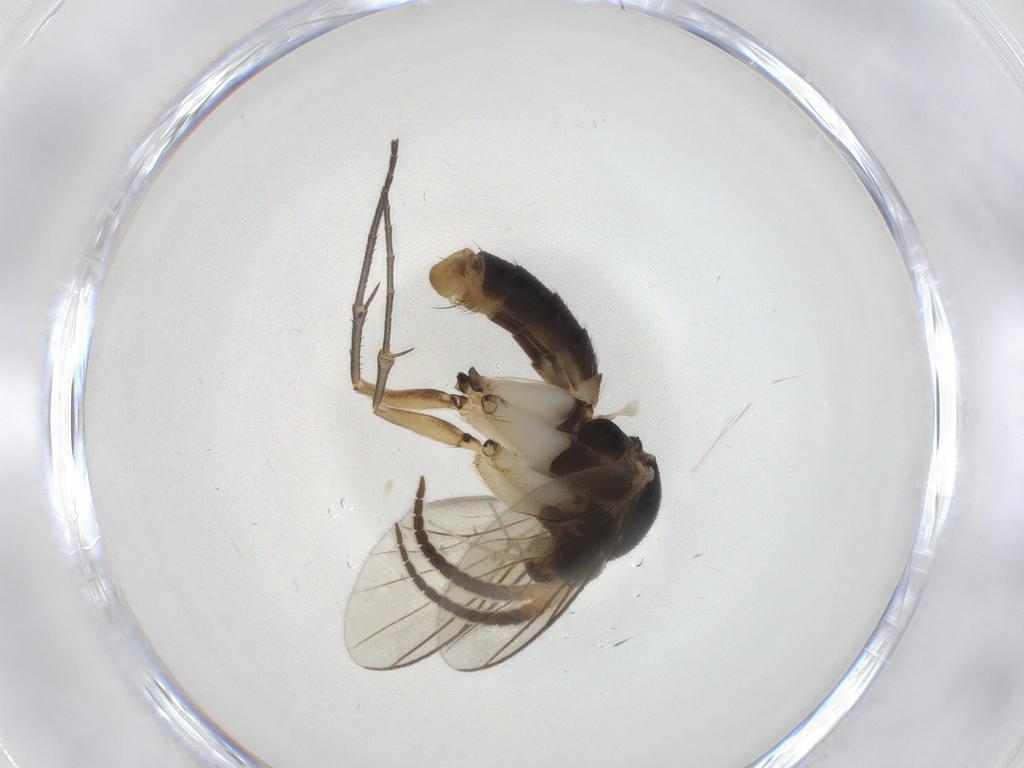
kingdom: Animalia
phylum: Arthropoda
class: Insecta
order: Diptera
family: Mycetophilidae
